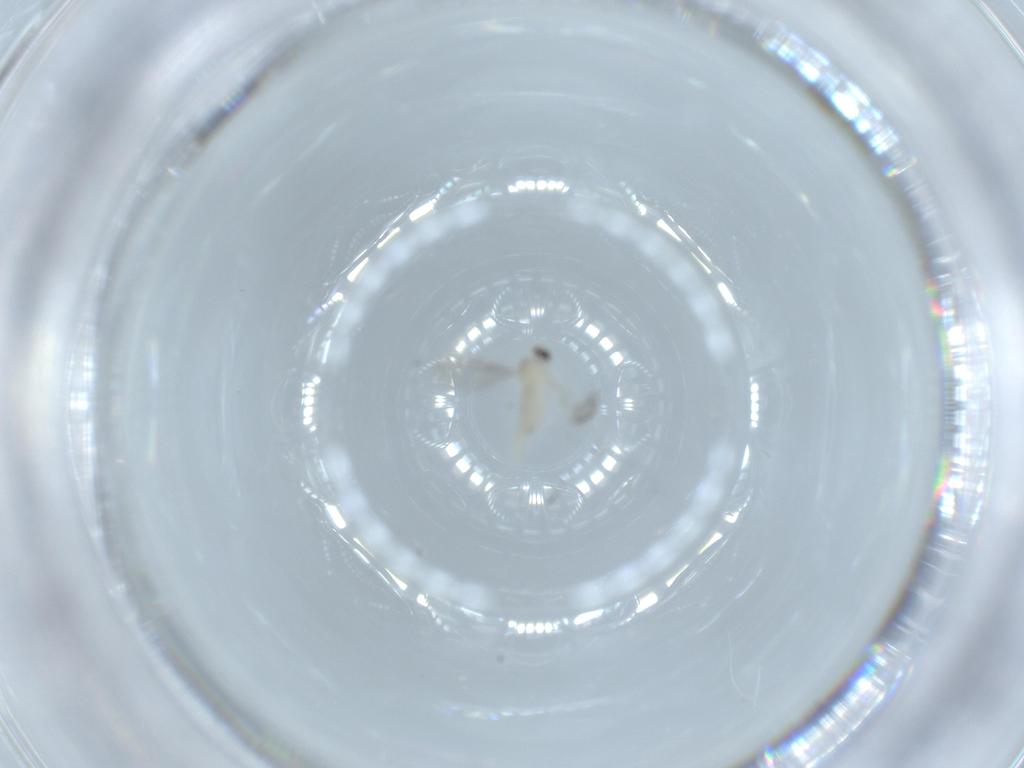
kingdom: Animalia
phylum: Arthropoda
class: Insecta
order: Diptera
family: Cecidomyiidae
